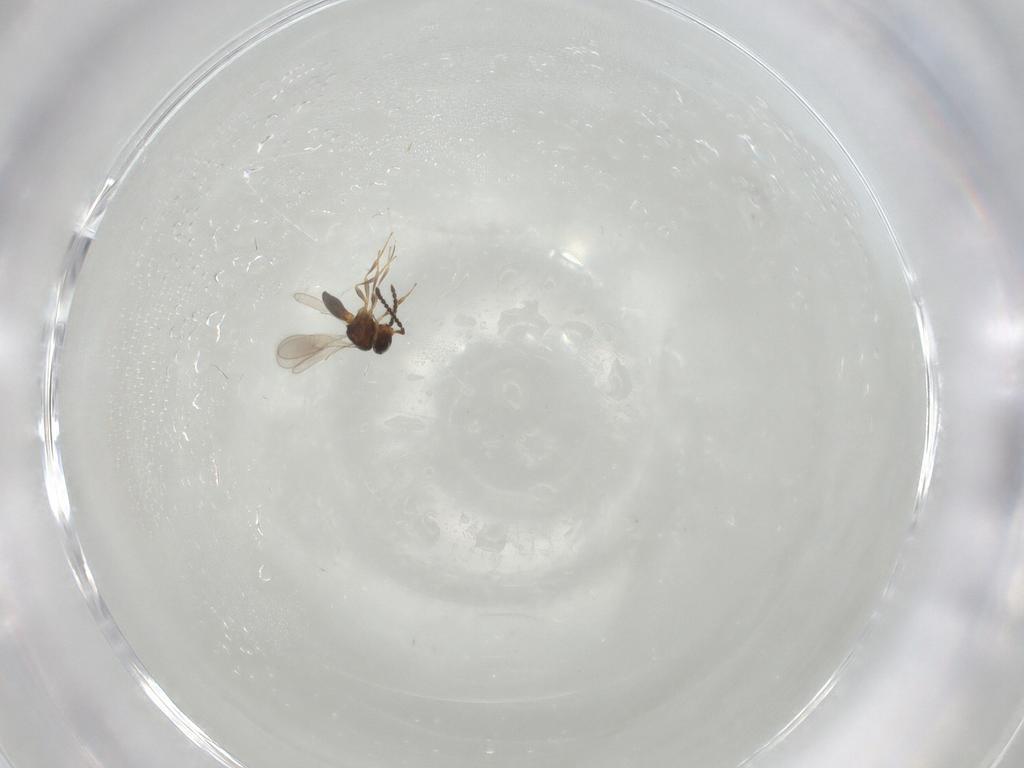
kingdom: Animalia
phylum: Arthropoda
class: Insecta
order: Hymenoptera
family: Scelionidae
